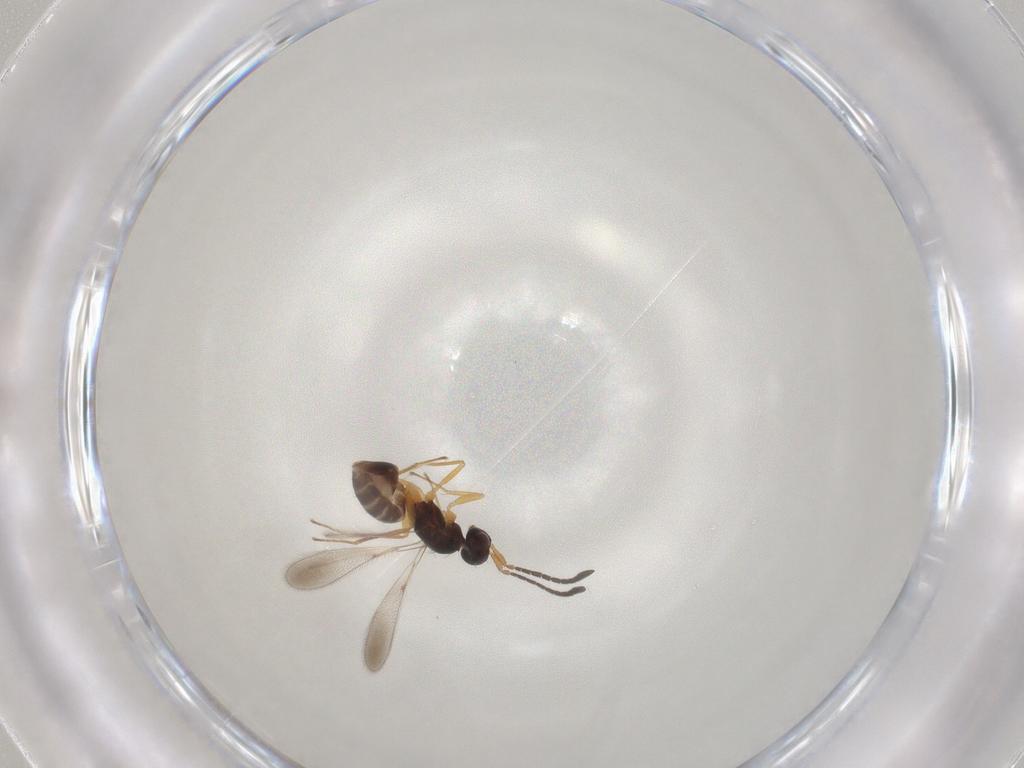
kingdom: Animalia
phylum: Arthropoda
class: Insecta
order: Hymenoptera
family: Mymaridae
